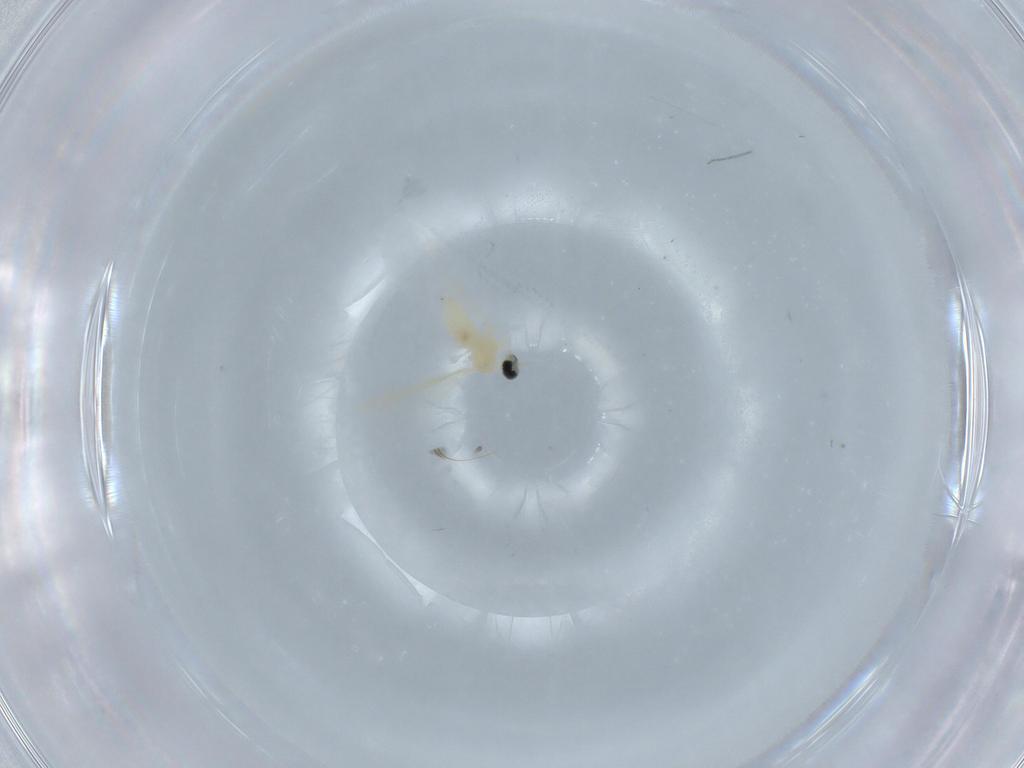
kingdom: Animalia
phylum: Arthropoda
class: Insecta
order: Diptera
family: Cecidomyiidae
